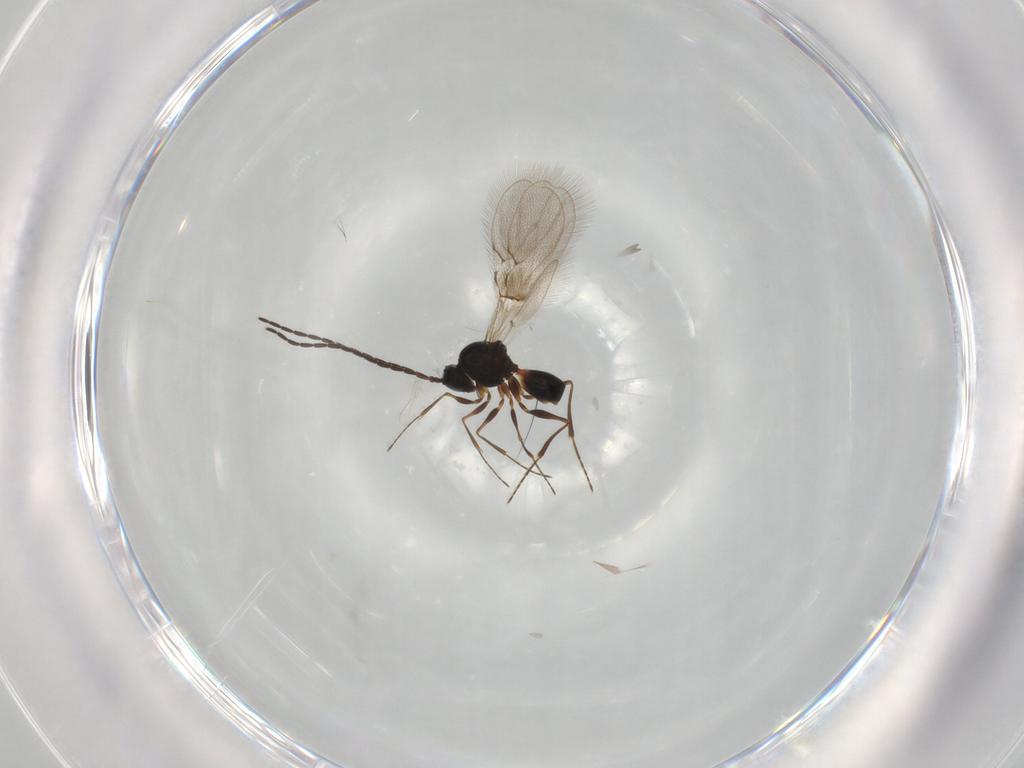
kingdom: Animalia
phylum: Arthropoda
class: Insecta
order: Hymenoptera
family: Figitidae
